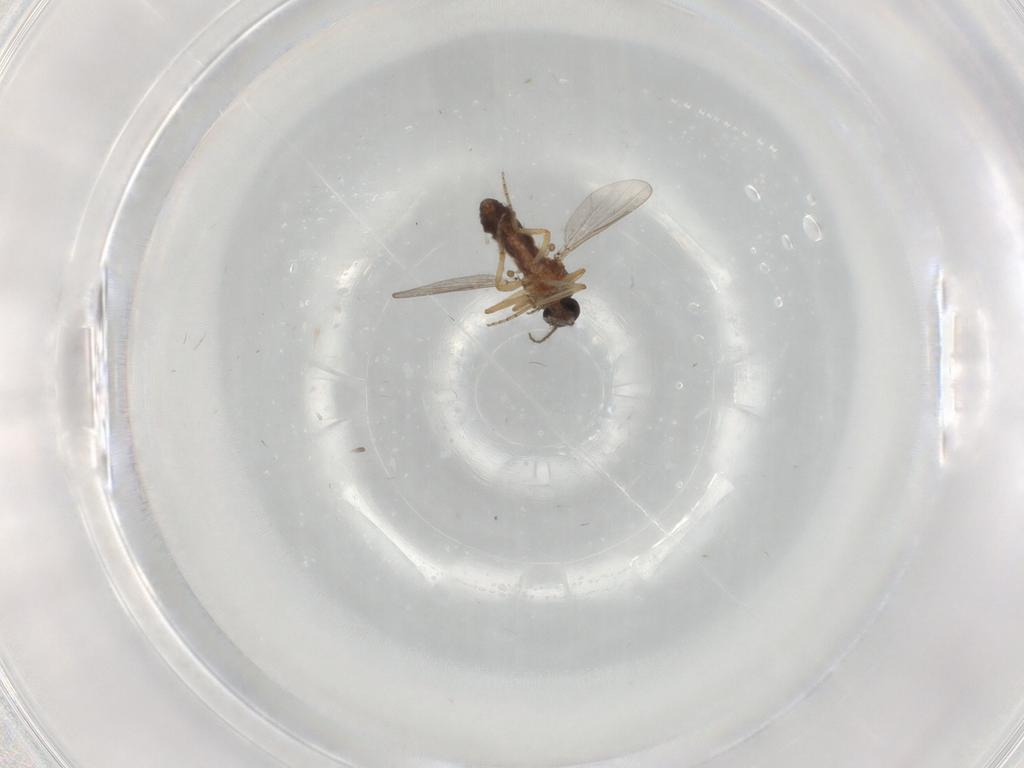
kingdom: Animalia
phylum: Arthropoda
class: Insecta
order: Diptera
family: Ceratopogonidae
